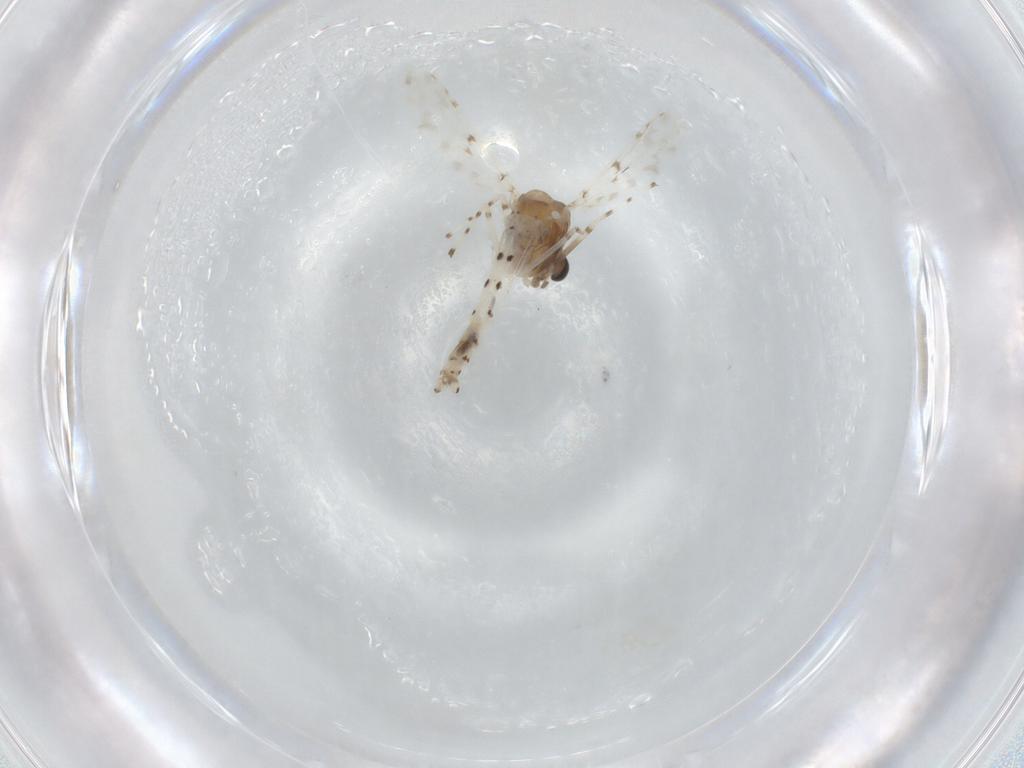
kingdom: Animalia
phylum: Arthropoda
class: Insecta
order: Diptera
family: Chironomidae
